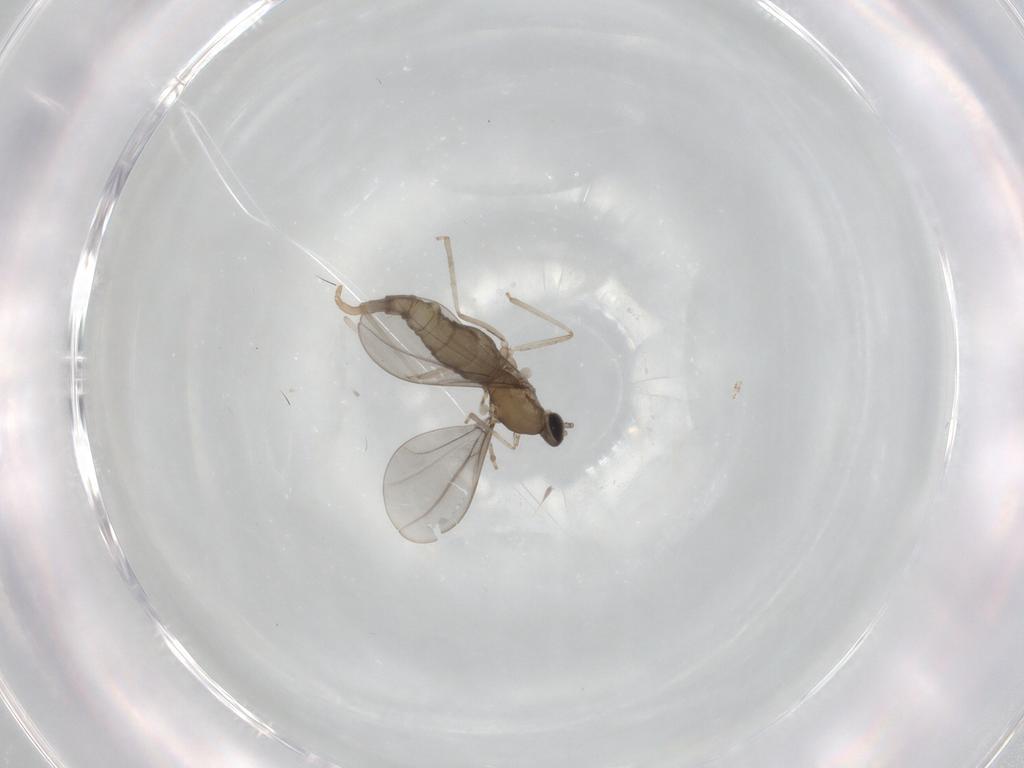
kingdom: Animalia
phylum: Arthropoda
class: Insecta
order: Diptera
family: Cecidomyiidae
